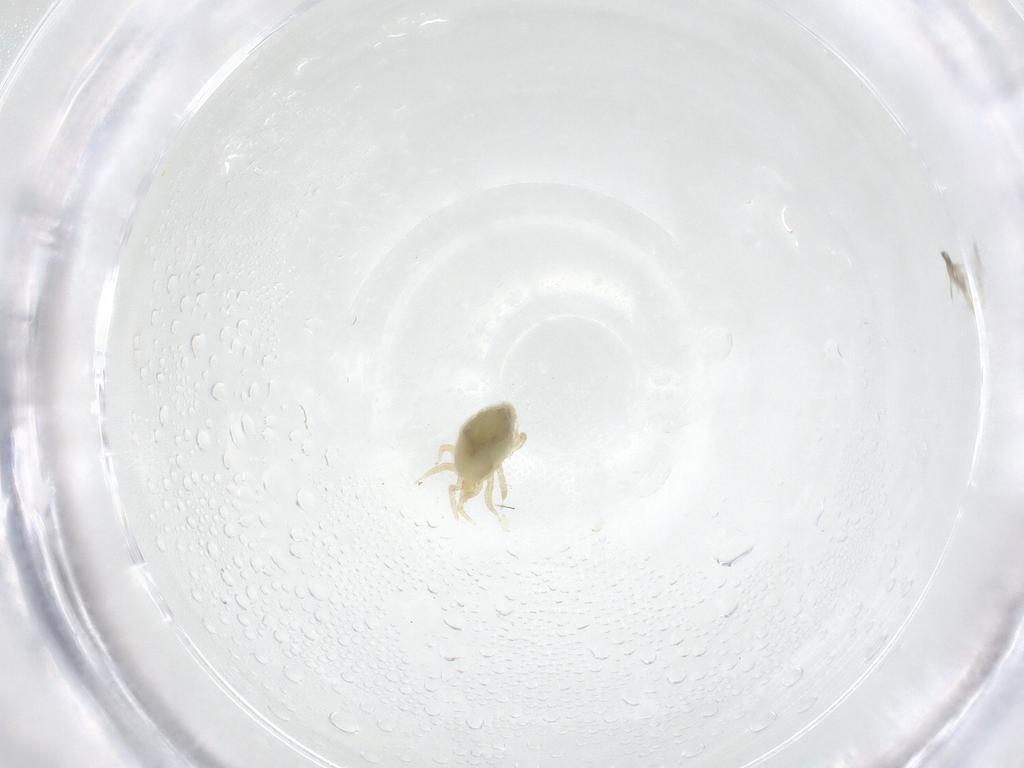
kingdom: Animalia
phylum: Arthropoda
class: Arachnida
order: Mesostigmata
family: Melicharidae
